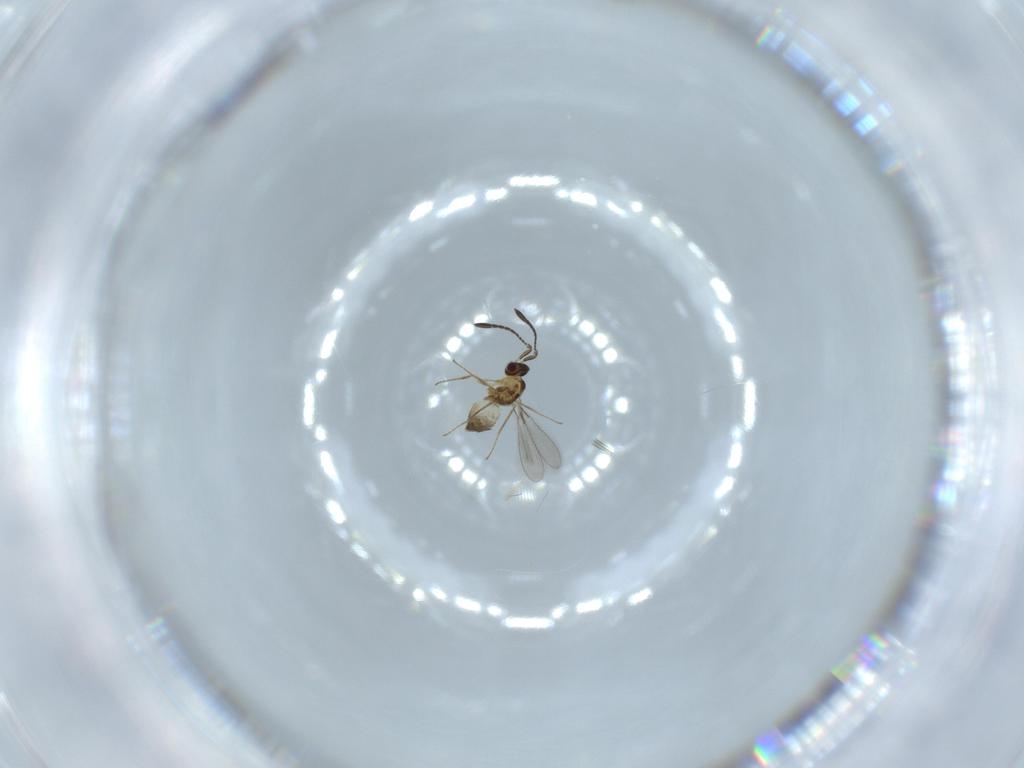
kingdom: Animalia
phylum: Arthropoda
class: Insecta
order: Hymenoptera
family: Mymaridae
